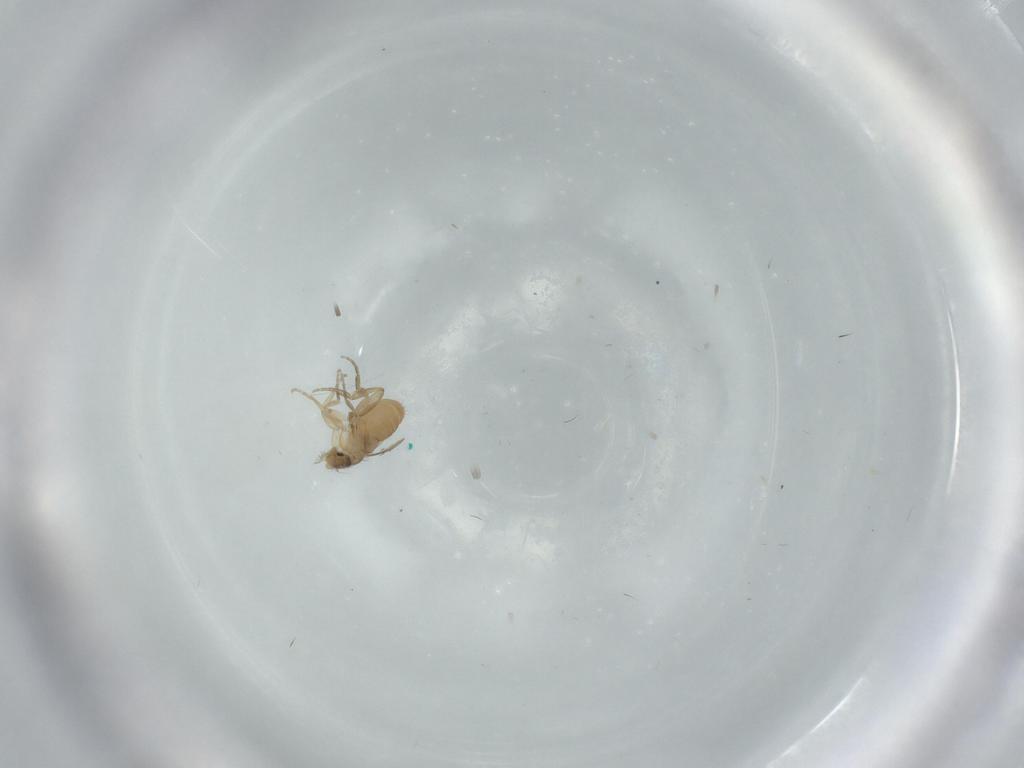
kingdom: Animalia
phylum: Arthropoda
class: Insecta
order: Diptera
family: Phoridae
